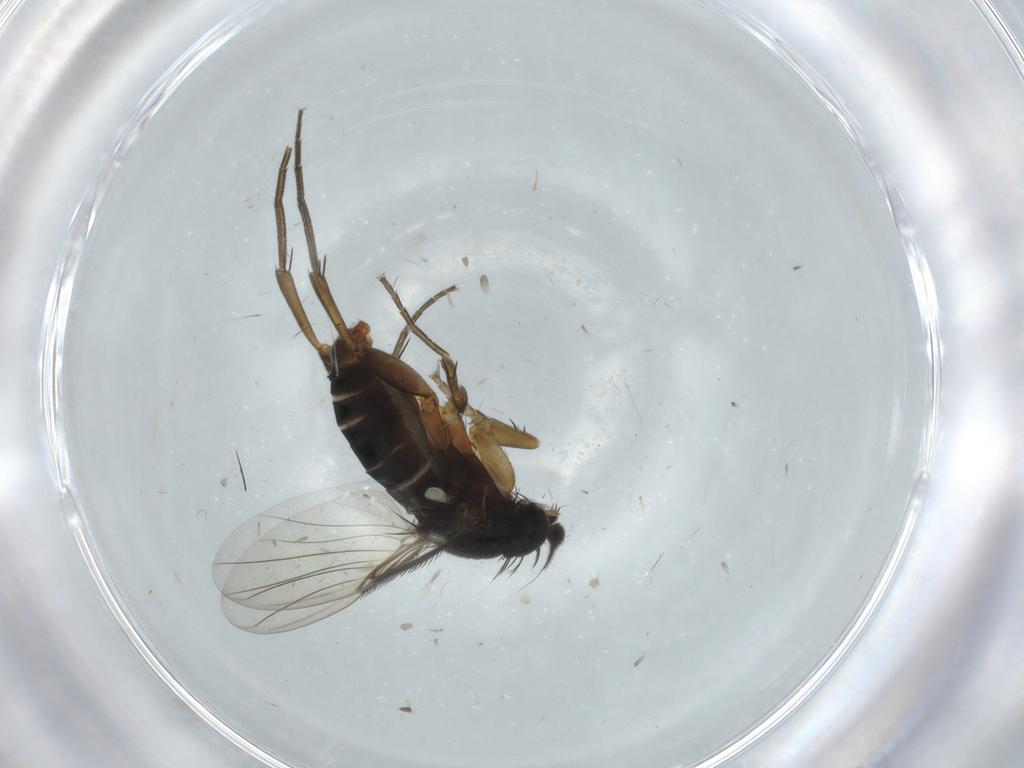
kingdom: Animalia
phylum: Arthropoda
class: Insecta
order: Diptera
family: Phoridae
